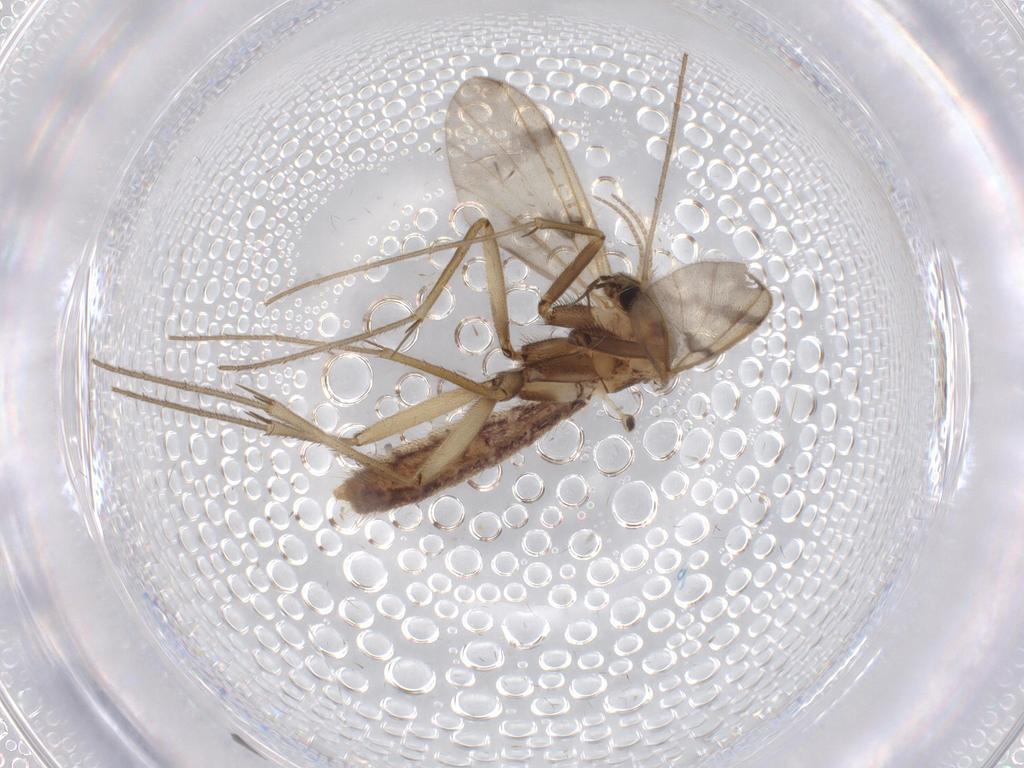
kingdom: Animalia
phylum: Arthropoda
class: Insecta
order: Diptera
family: Mycetophilidae
